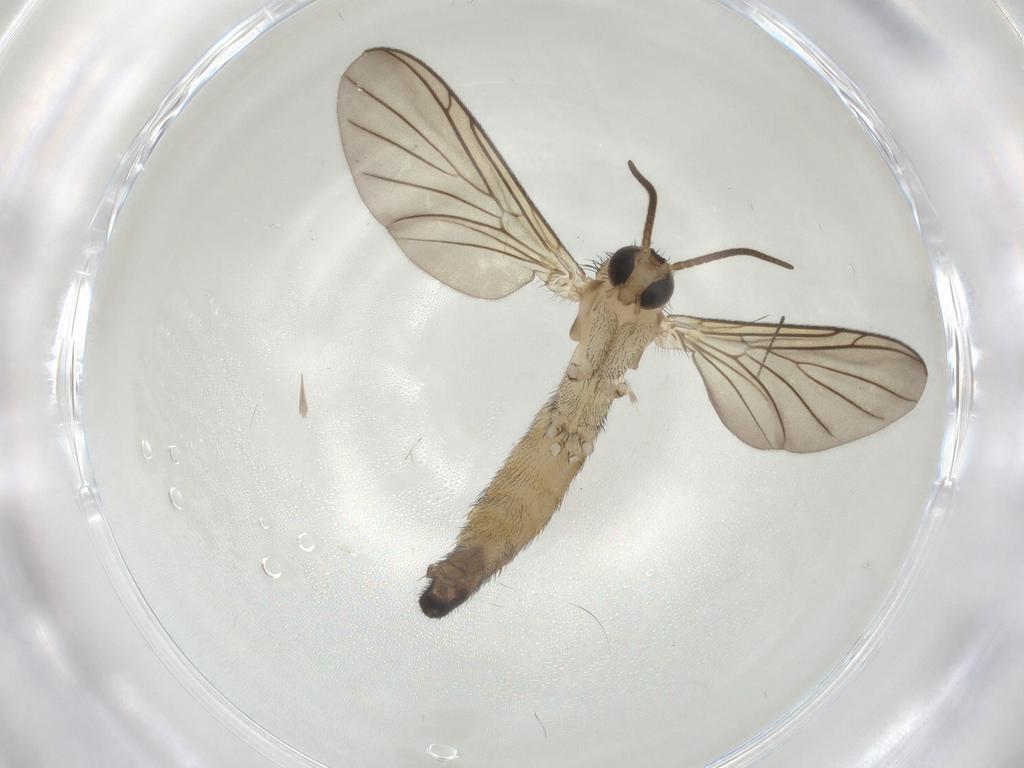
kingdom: Animalia
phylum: Arthropoda
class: Insecta
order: Diptera
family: Keroplatidae
